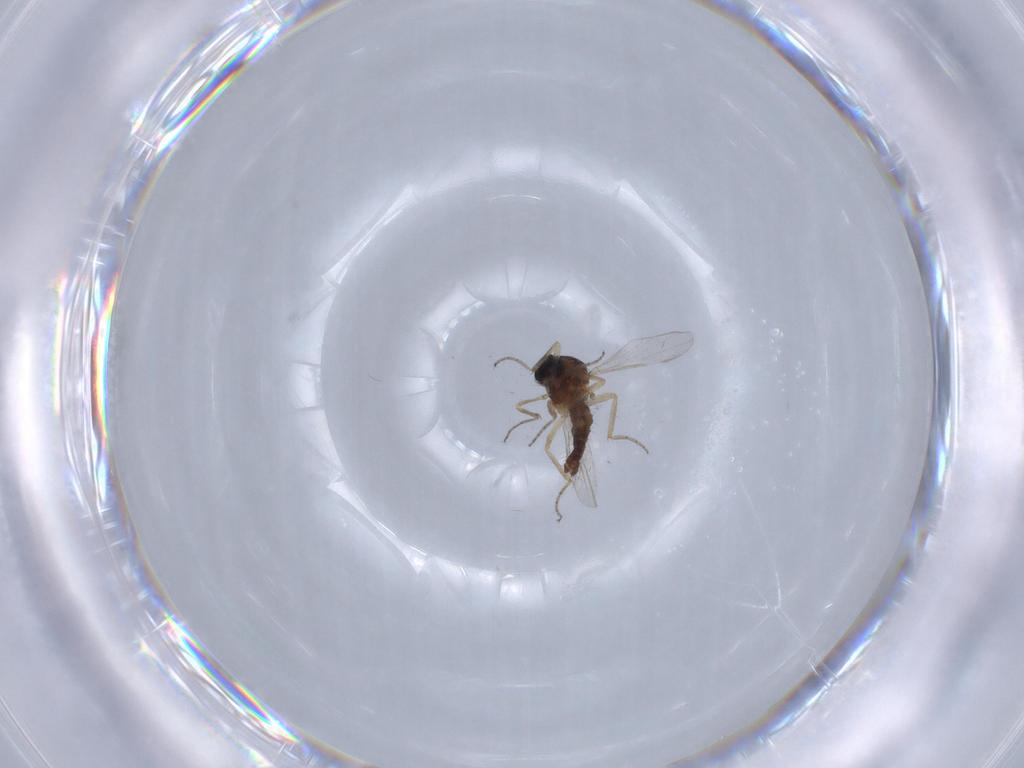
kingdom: Animalia
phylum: Arthropoda
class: Insecta
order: Diptera
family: Ceratopogonidae
